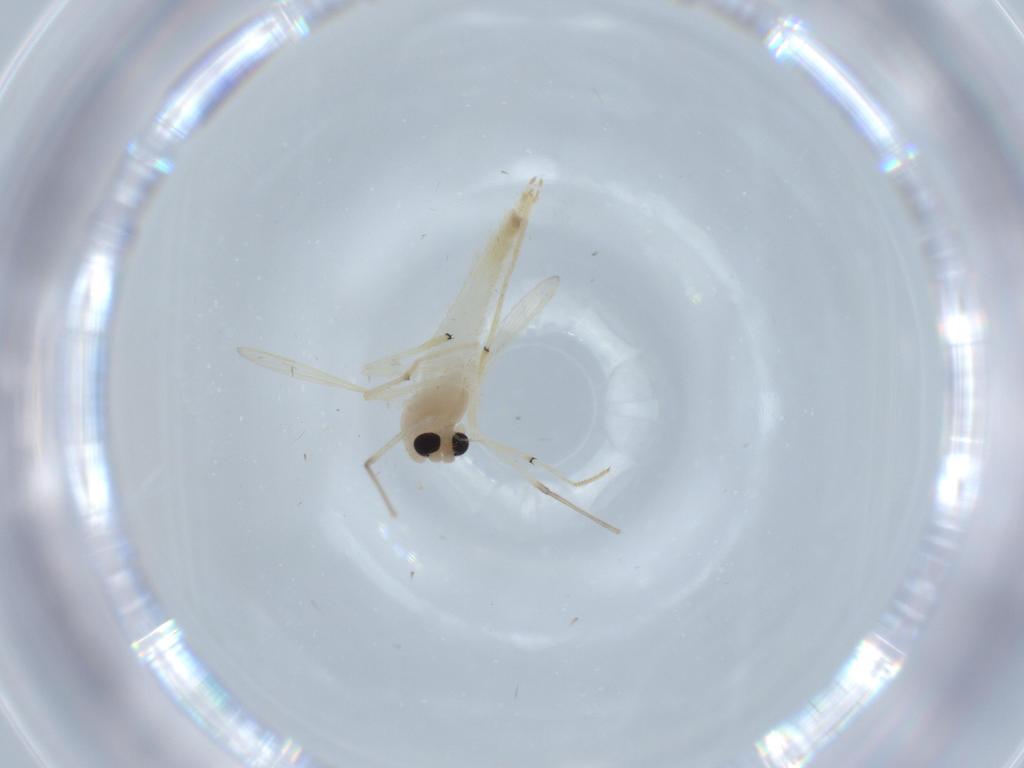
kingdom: Animalia
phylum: Arthropoda
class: Insecta
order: Diptera
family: Chironomidae
